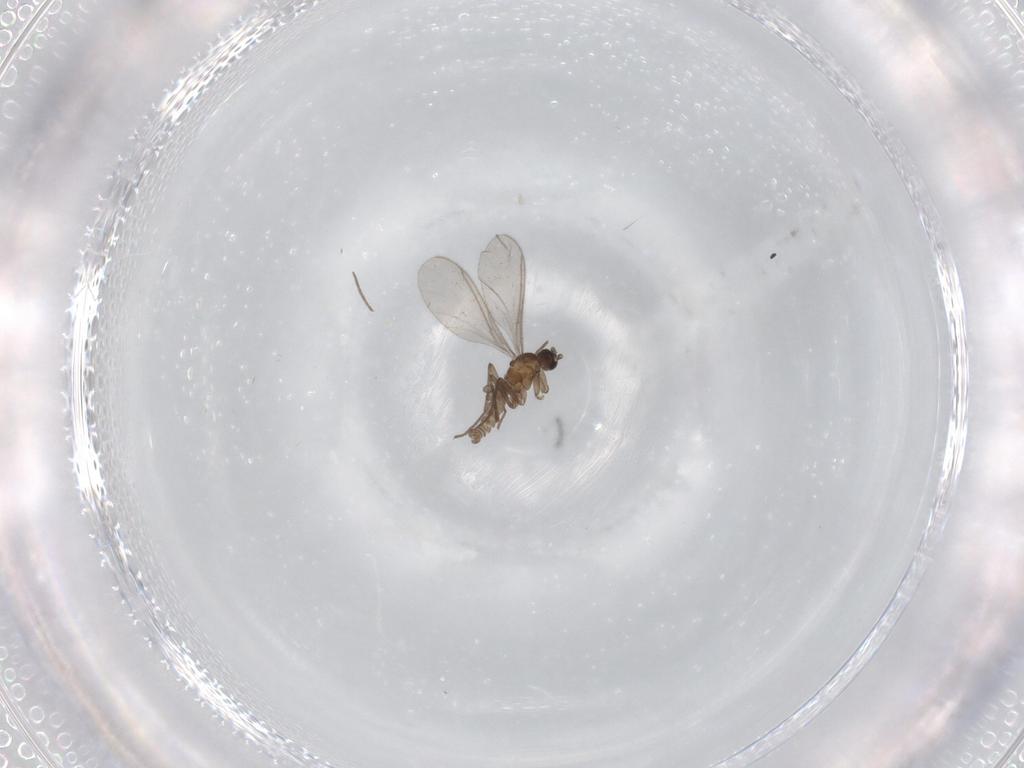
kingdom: Animalia
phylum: Arthropoda
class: Insecta
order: Diptera
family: Sciaridae
